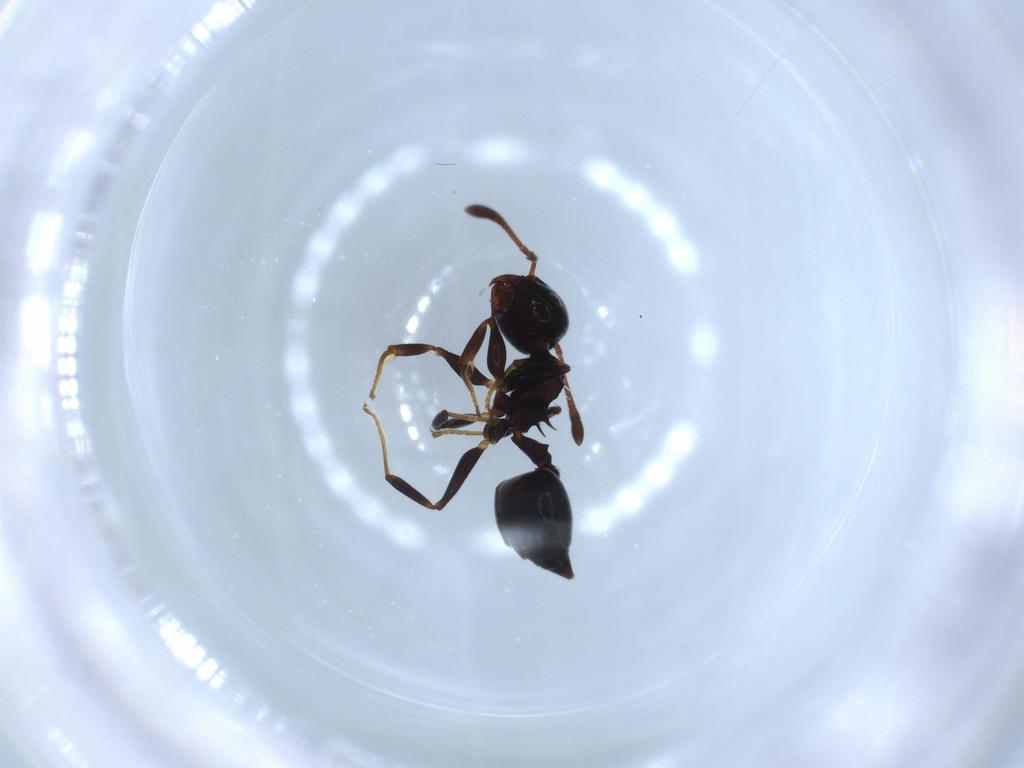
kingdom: Animalia
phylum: Arthropoda
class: Insecta
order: Hymenoptera
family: Formicidae
